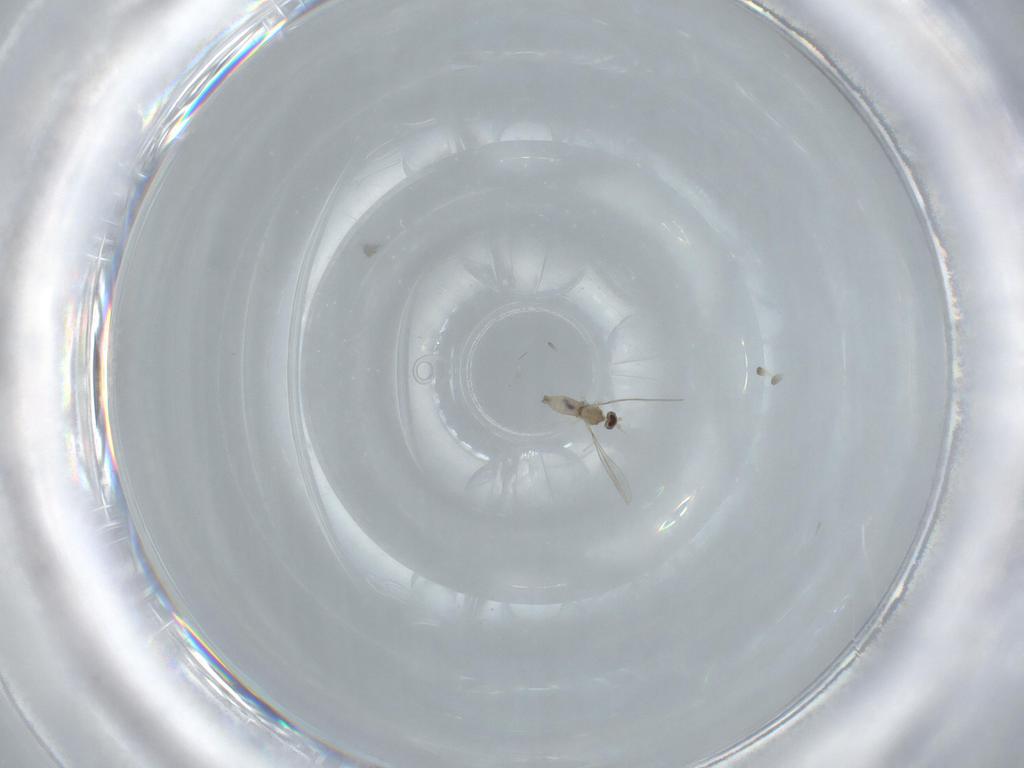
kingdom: Animalia
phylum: Arthropoda
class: Insecta
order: Diptera
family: Cecidomyiidae
